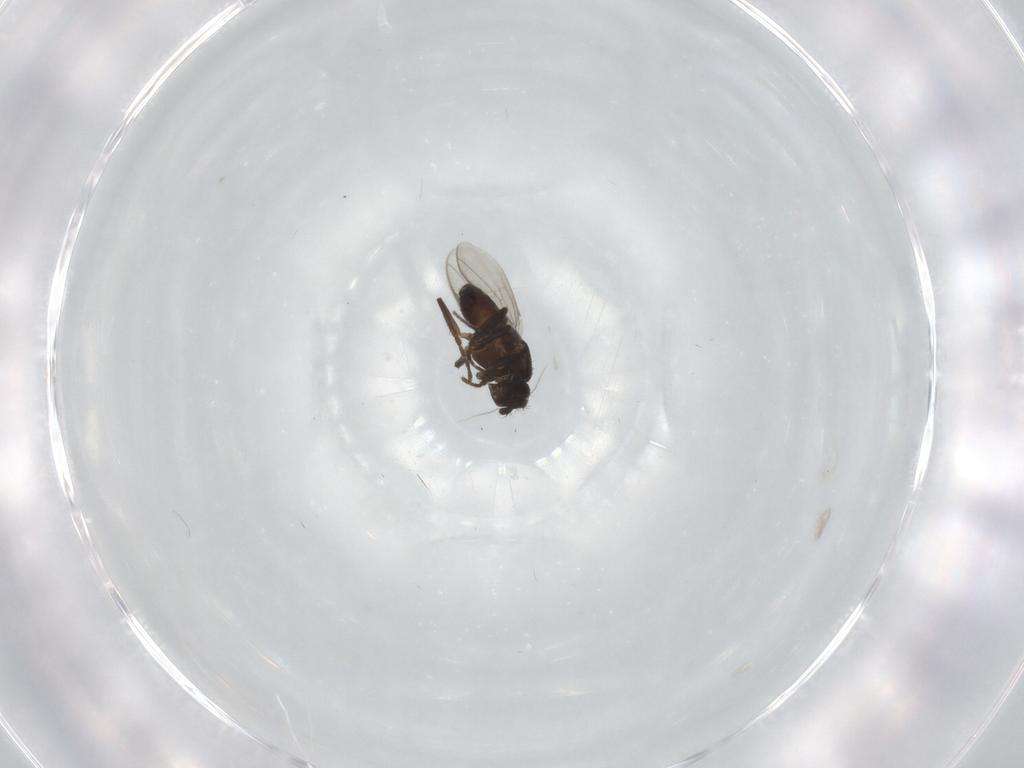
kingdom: Animalia
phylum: Arthropoda
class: Insecta
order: Diptera
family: Sphaeroceridae
